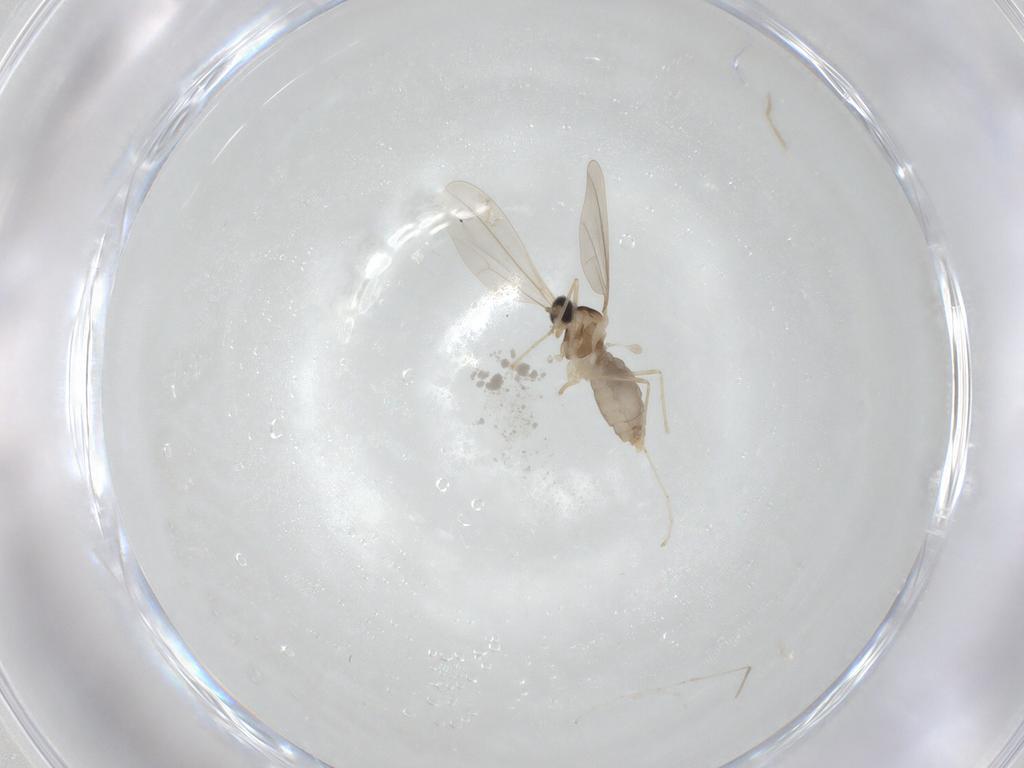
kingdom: Animalia
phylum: Arthropoda
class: Insecta
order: Diptera
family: Cecidomyiidae
